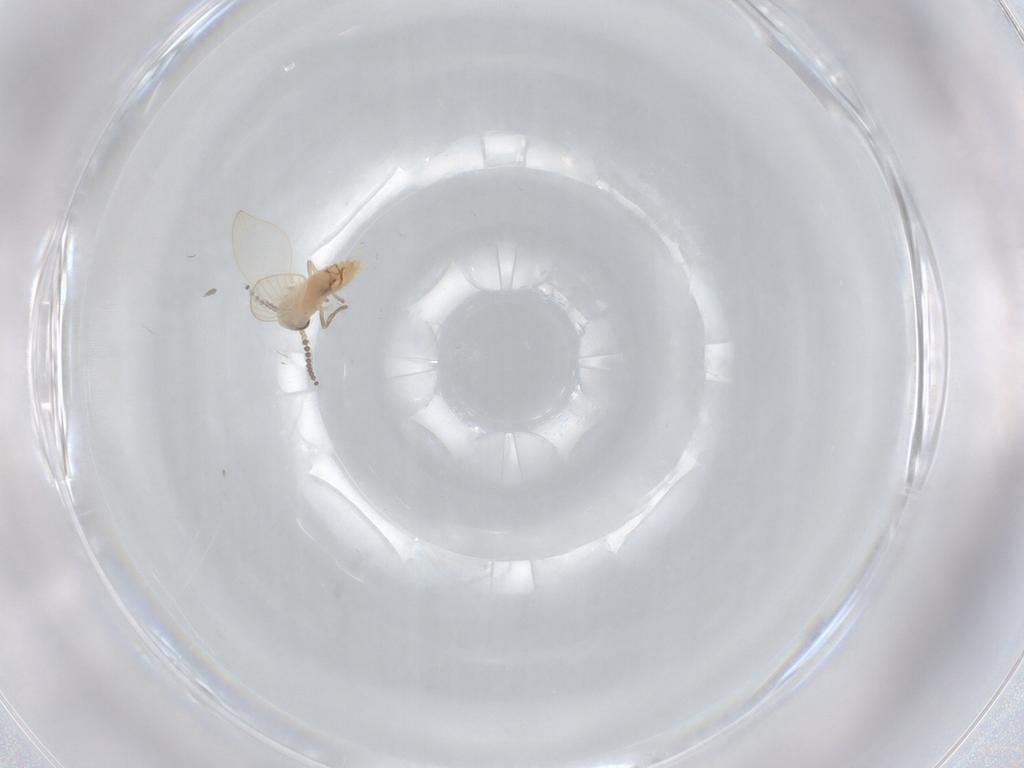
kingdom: Animalia
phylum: Arthropoda
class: Insecta
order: Diptera
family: Psychodidae
